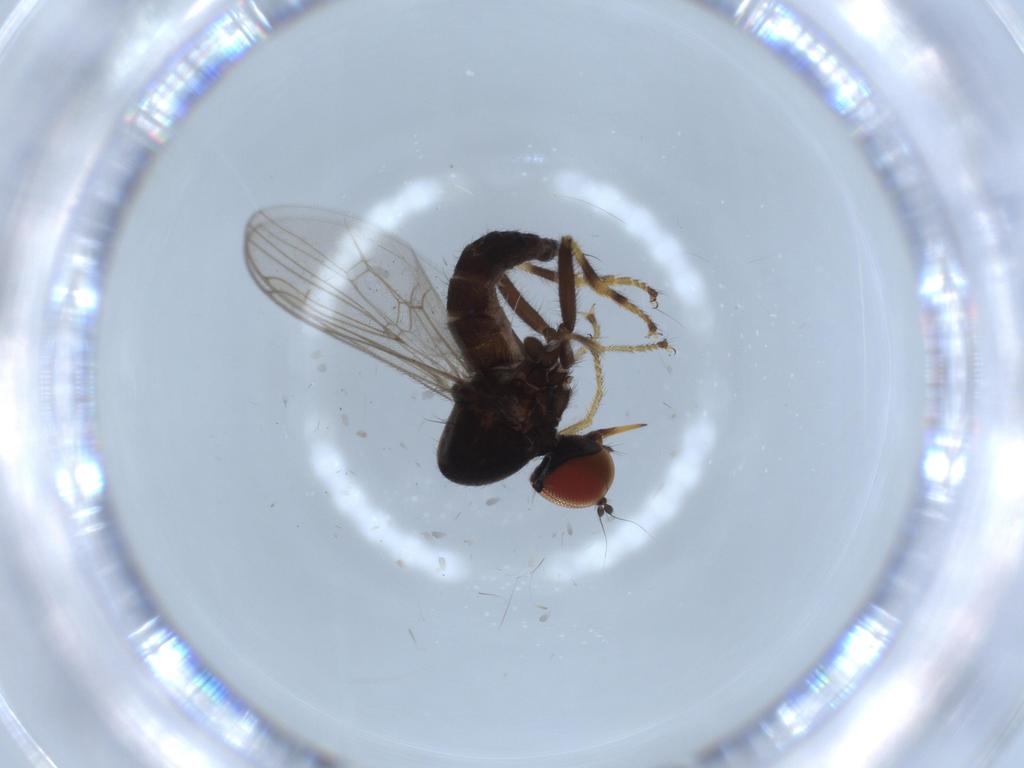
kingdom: Animalia
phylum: Arthropoda
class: Insecta
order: Diptera
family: Hybotidae
